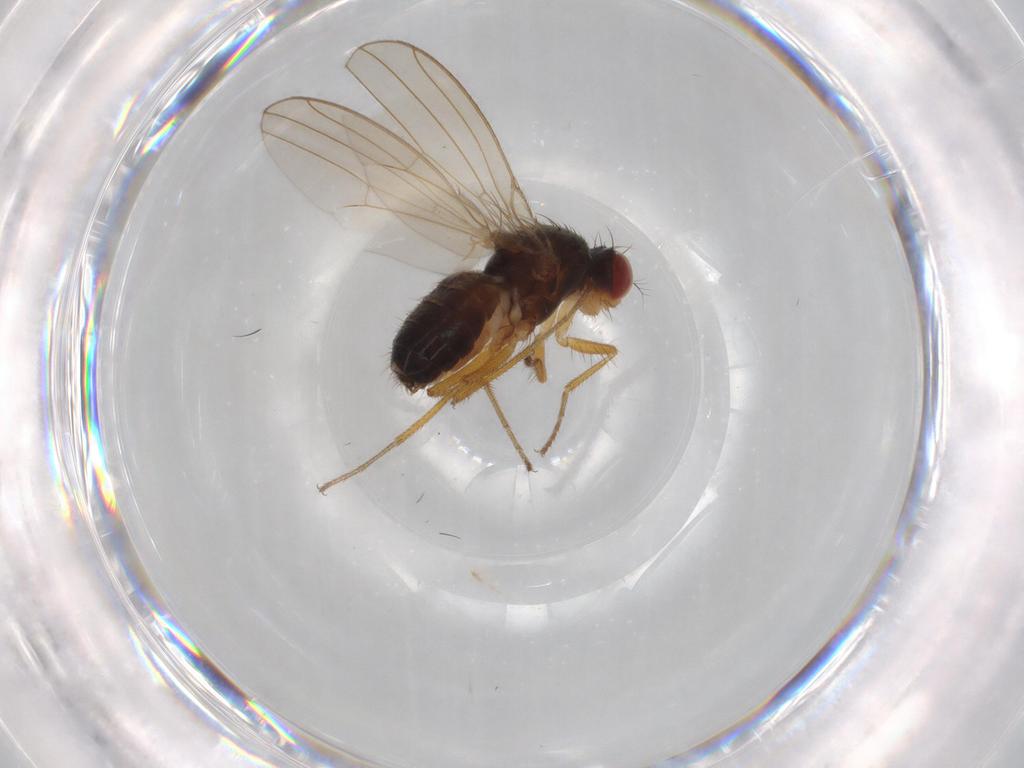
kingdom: Animalia
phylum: Arthropoda
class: Insecta
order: Diptera
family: Drosophilidae
